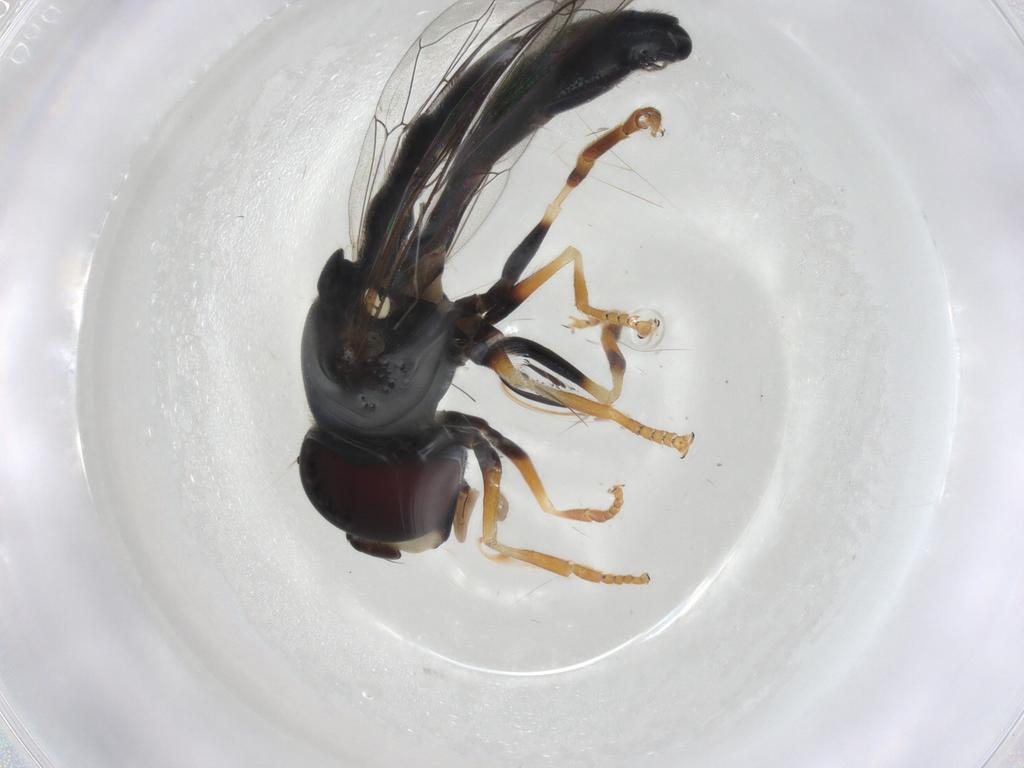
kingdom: Animalia
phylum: Arthropoda
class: Insecta
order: Diptera
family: Syrphidae
